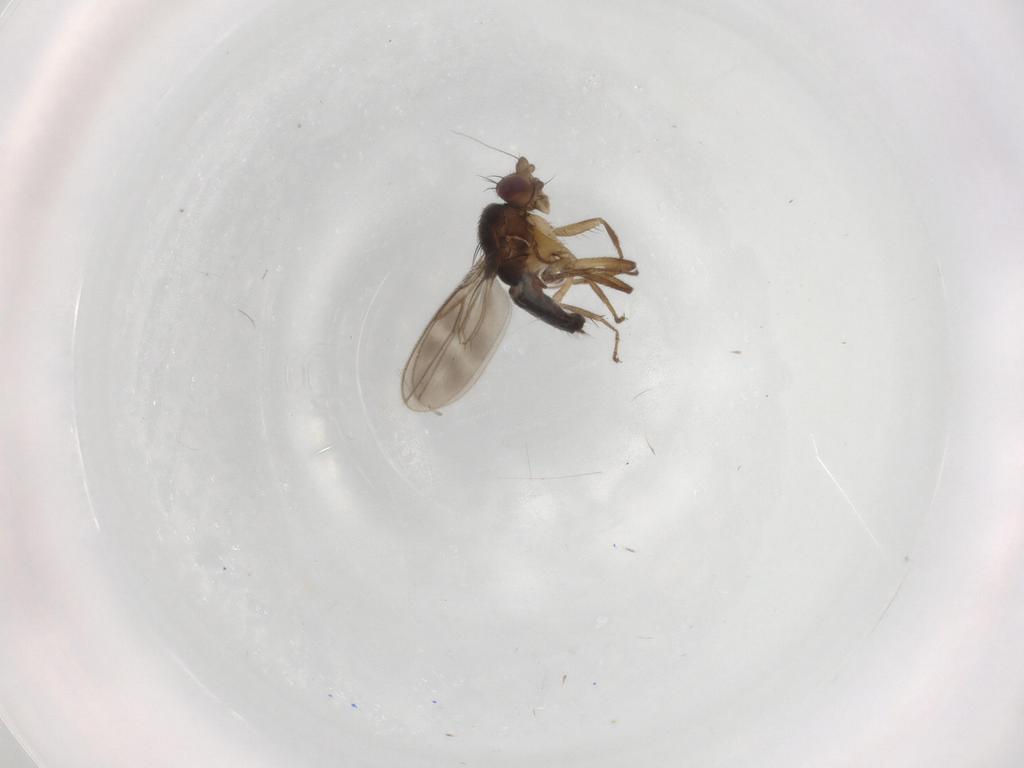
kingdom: Animalia
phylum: Arthropoda
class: Insecta
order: Diptera
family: Sphaeroceridae
